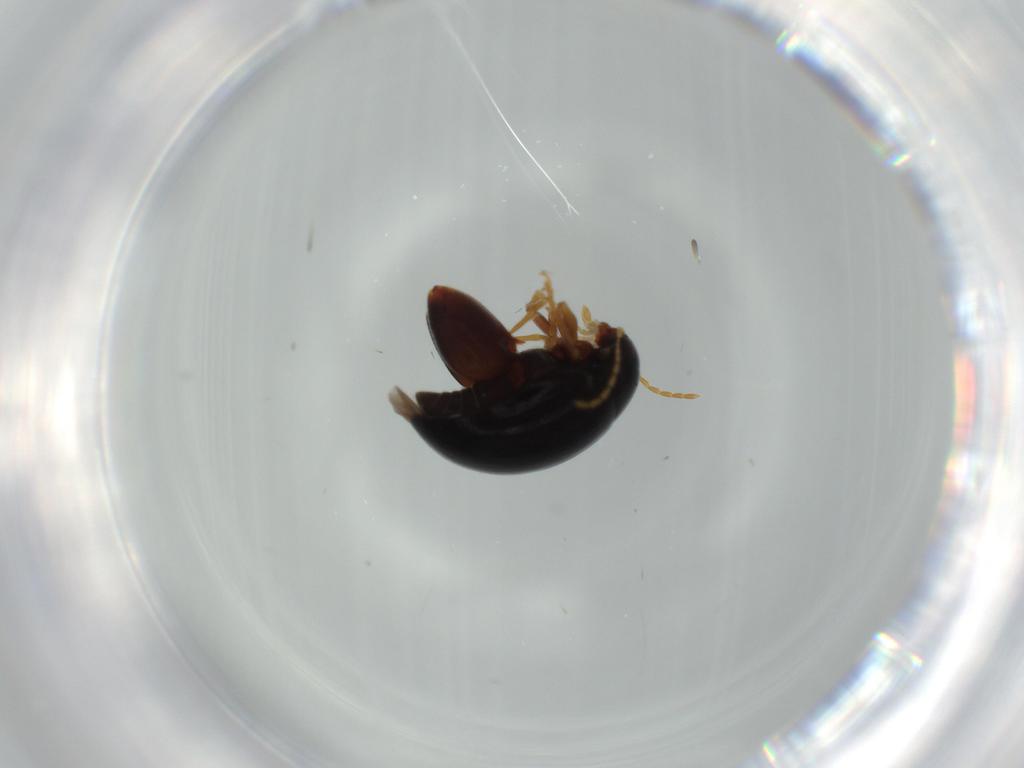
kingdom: Animalia
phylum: Arthropoda
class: Insecta
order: Coleoptera
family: Chrysomelidae
